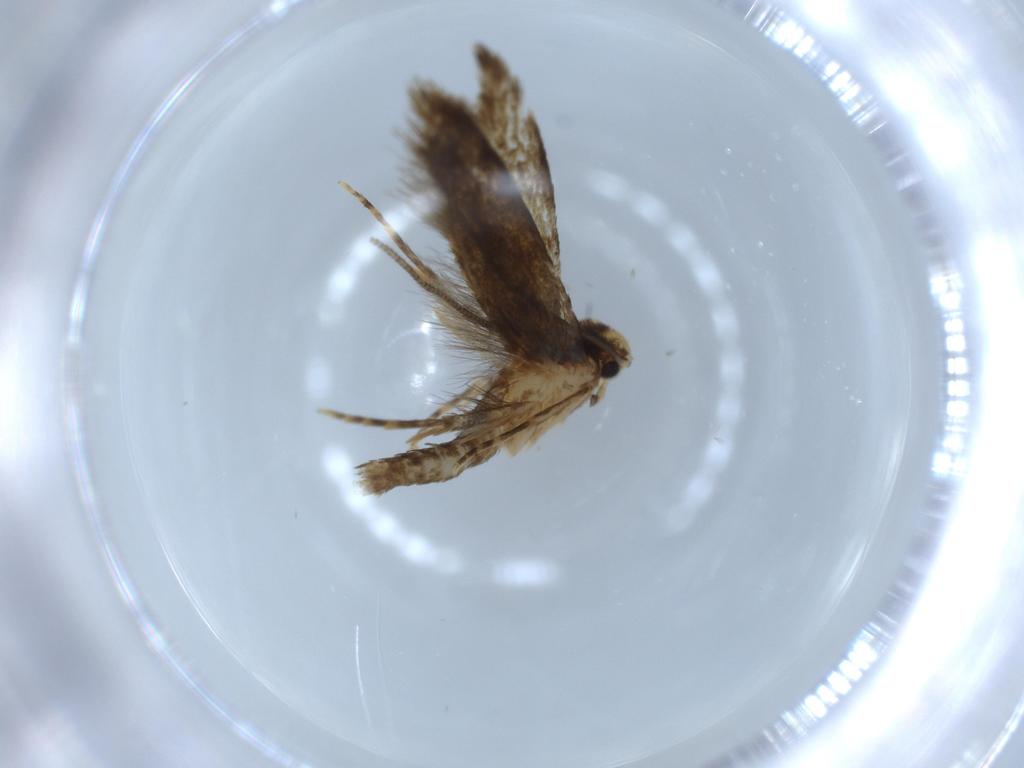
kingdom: Animalia
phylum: Arthropoda
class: Insecta
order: Lepidoptera
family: Tineidae
